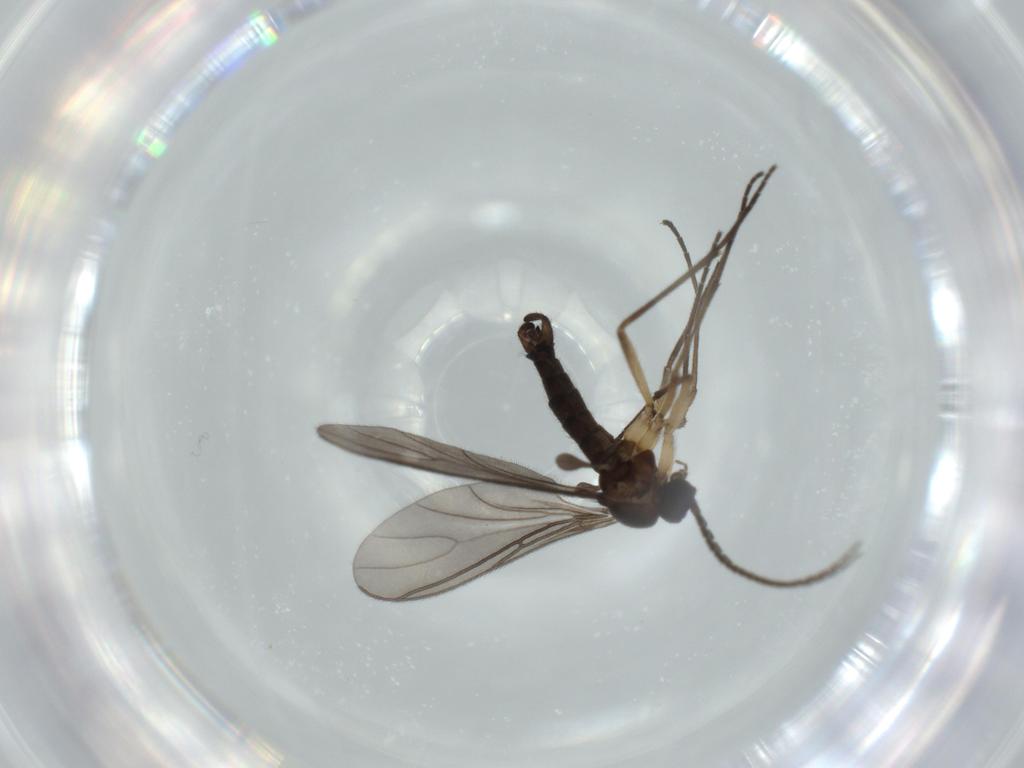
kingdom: Animalia
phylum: Arthropoda
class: Insecta
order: Diptera
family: Sciaridae
